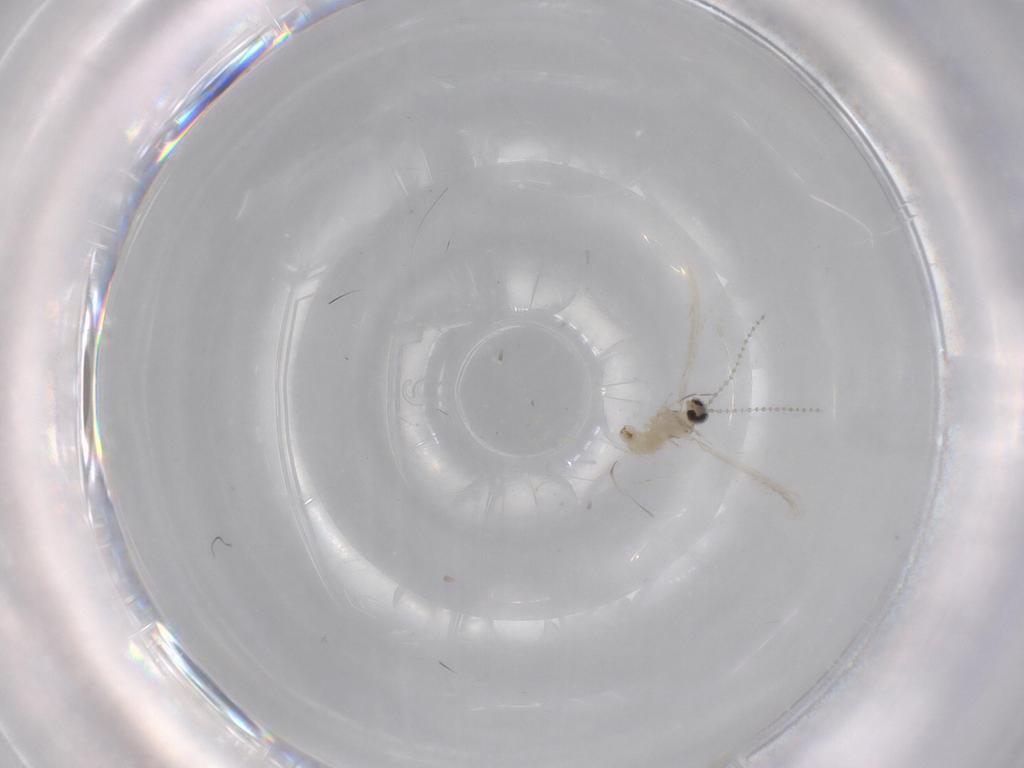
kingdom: Animalia
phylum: Arthropoda
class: Insecta
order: Diptera
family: Cecidomyiidae
